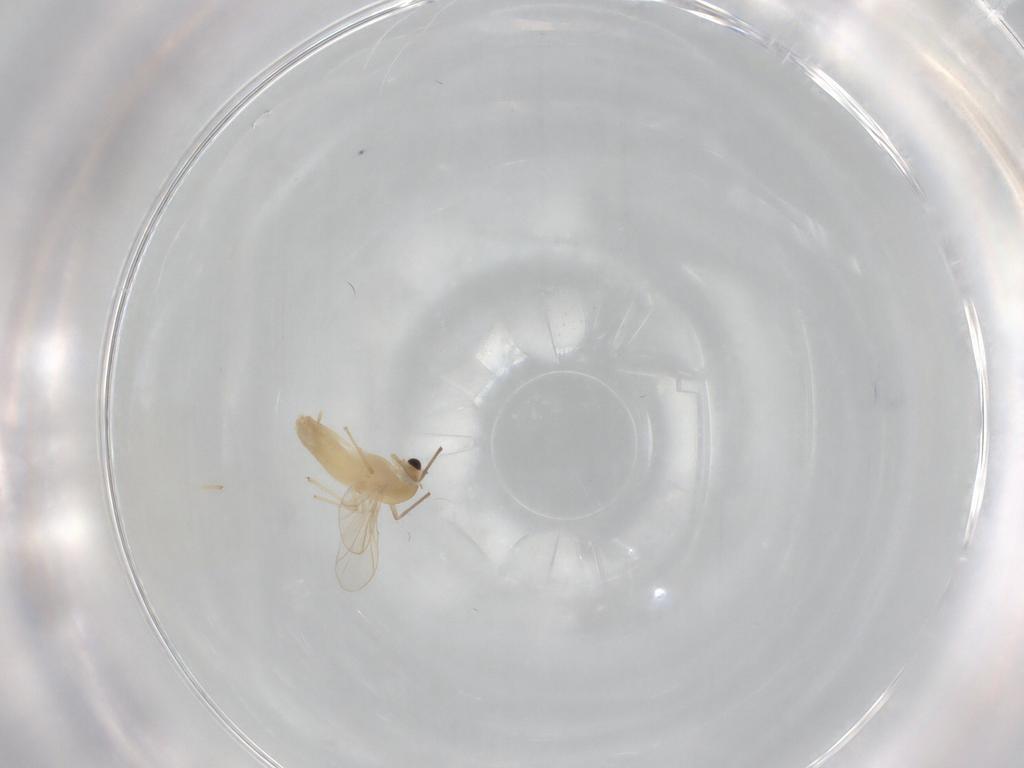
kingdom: Animalia
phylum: Arthropoda
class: Insecta
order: Diptera
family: Chironomidae
